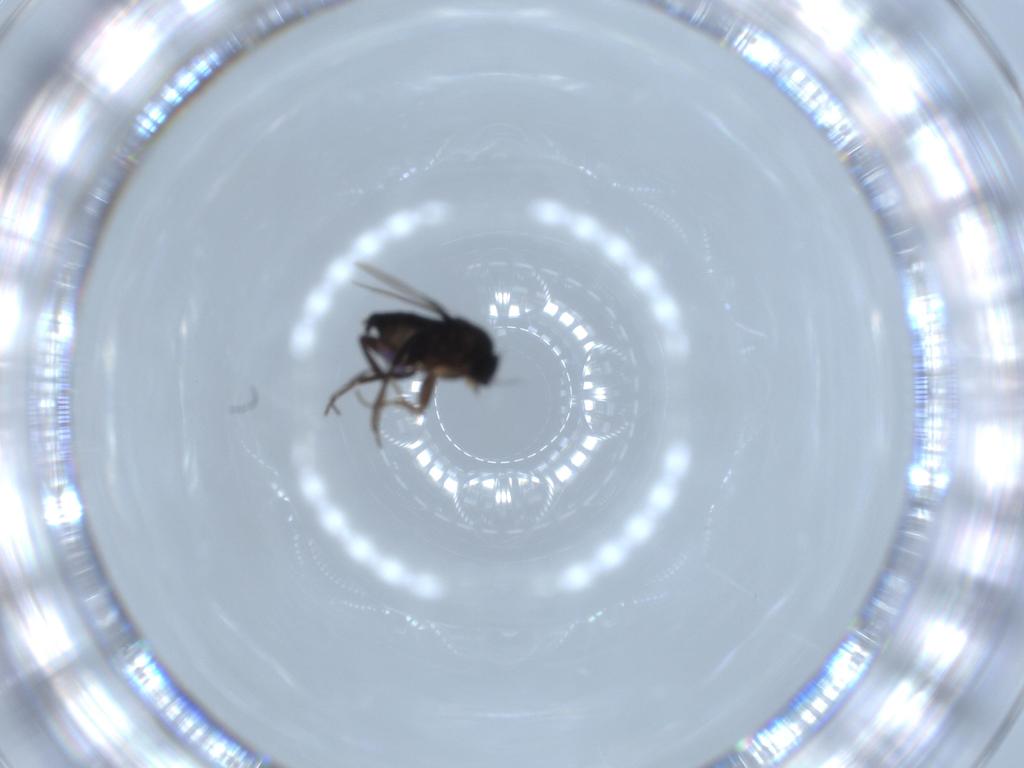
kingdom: Animalia
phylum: Arthropoda
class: Insecta
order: Diptera
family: Phoridae
